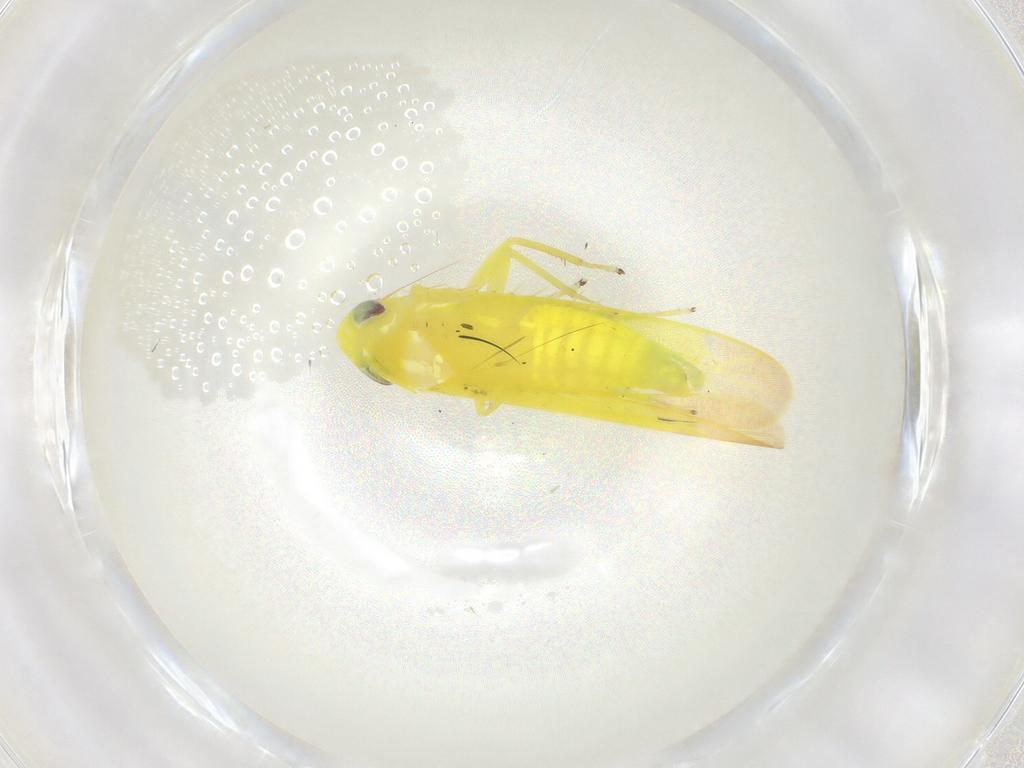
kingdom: Animalia
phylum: Arthropoda
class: Insecta
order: Hemiptera
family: Cicadellidae
